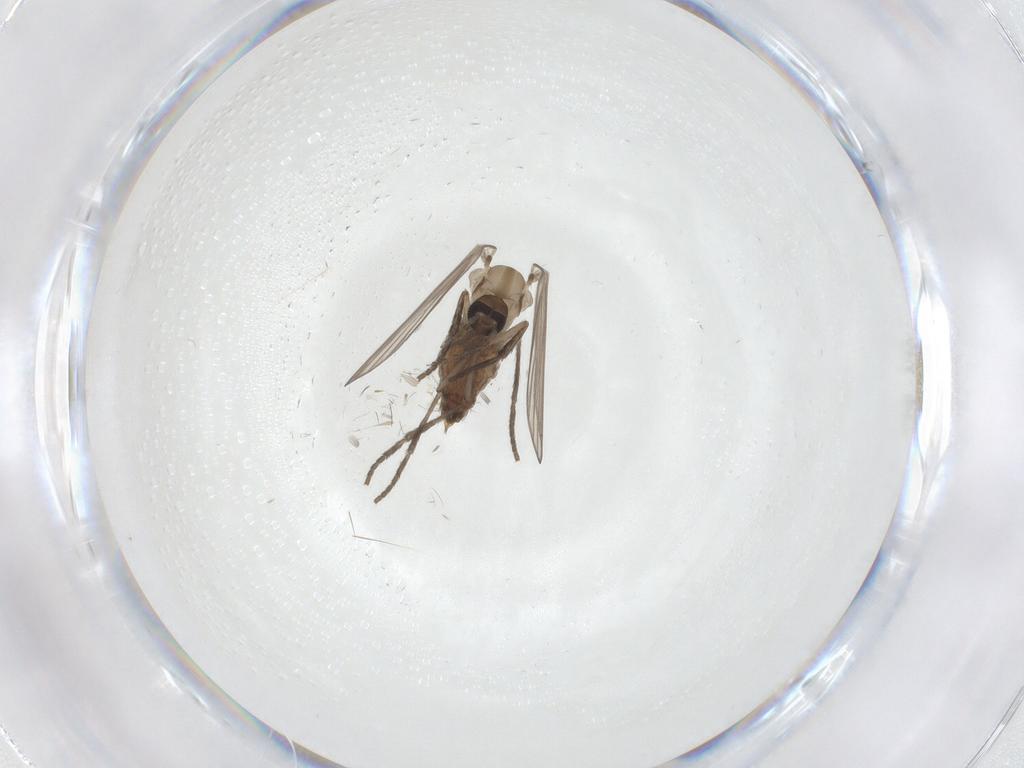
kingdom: Animalia
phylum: Arthropoda
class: Insecta
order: Diptera
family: Psychodidae
